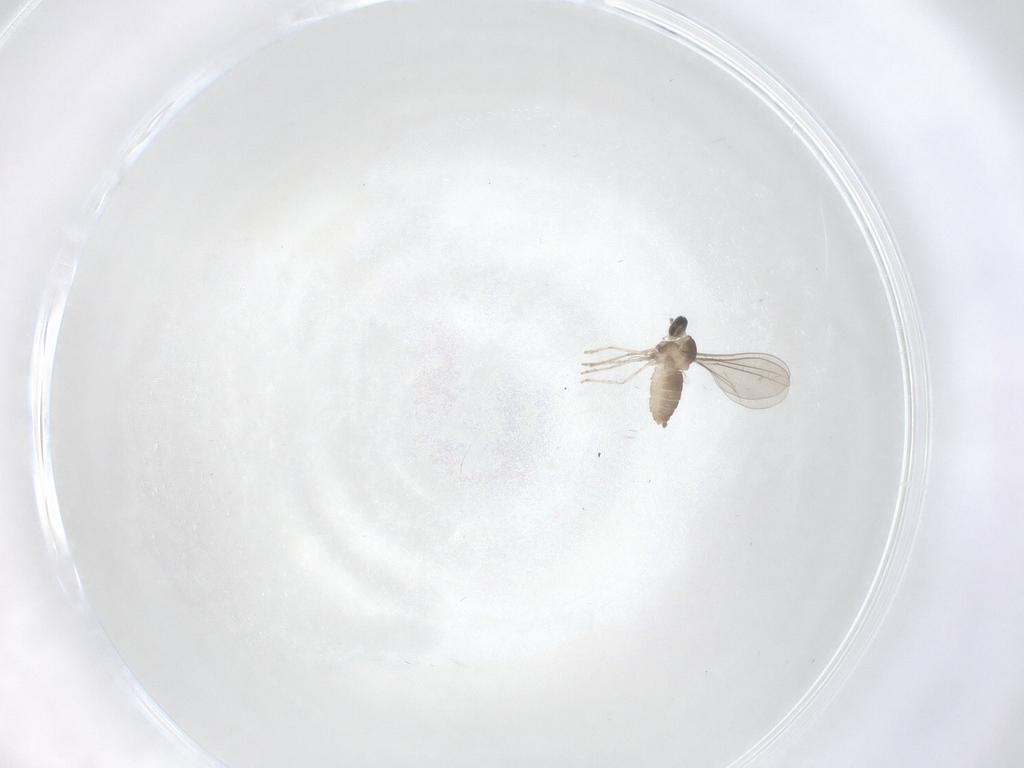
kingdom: Animalia
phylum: Arthropoda
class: Insecta
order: Diptera
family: Cecidomyiidae
